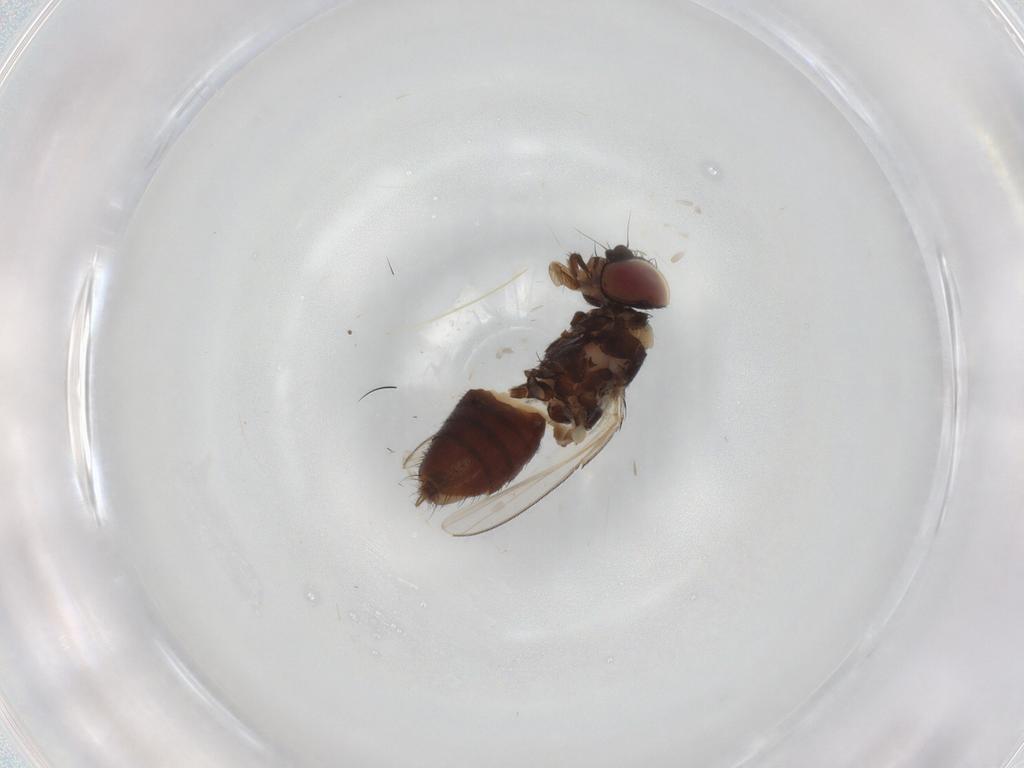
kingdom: Animalia
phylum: Arthropoda
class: Insecta
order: Diptera
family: Milichiidae
